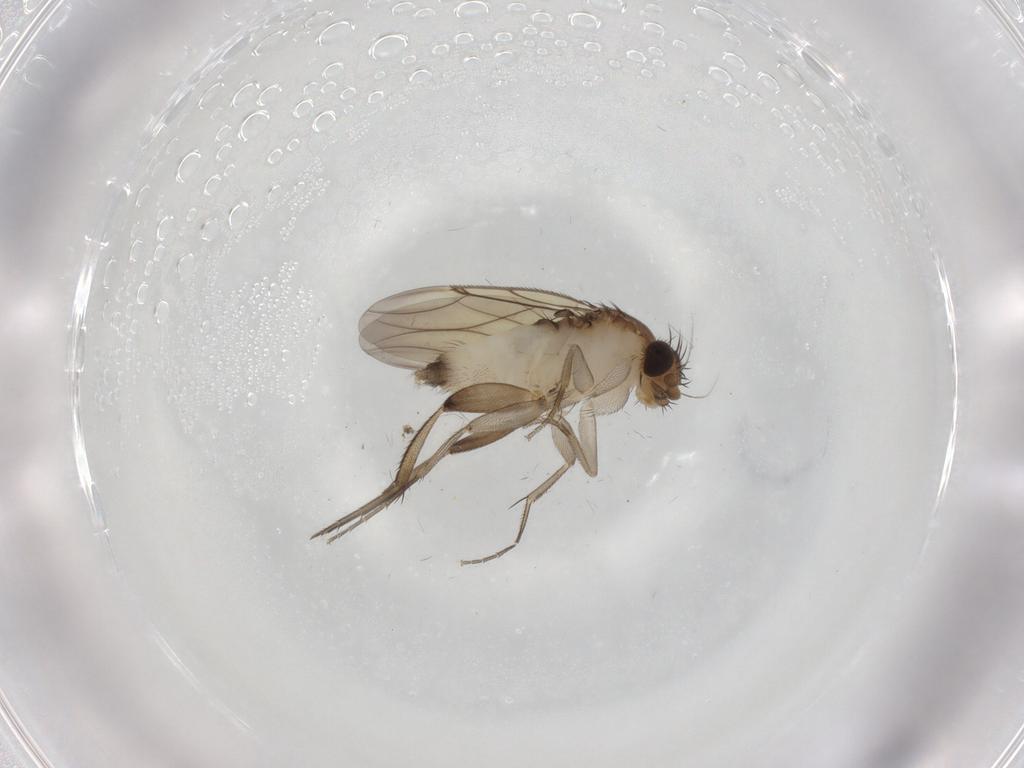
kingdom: Animalia
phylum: Arthropoda
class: Insecta
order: Diptera
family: Phoridae
